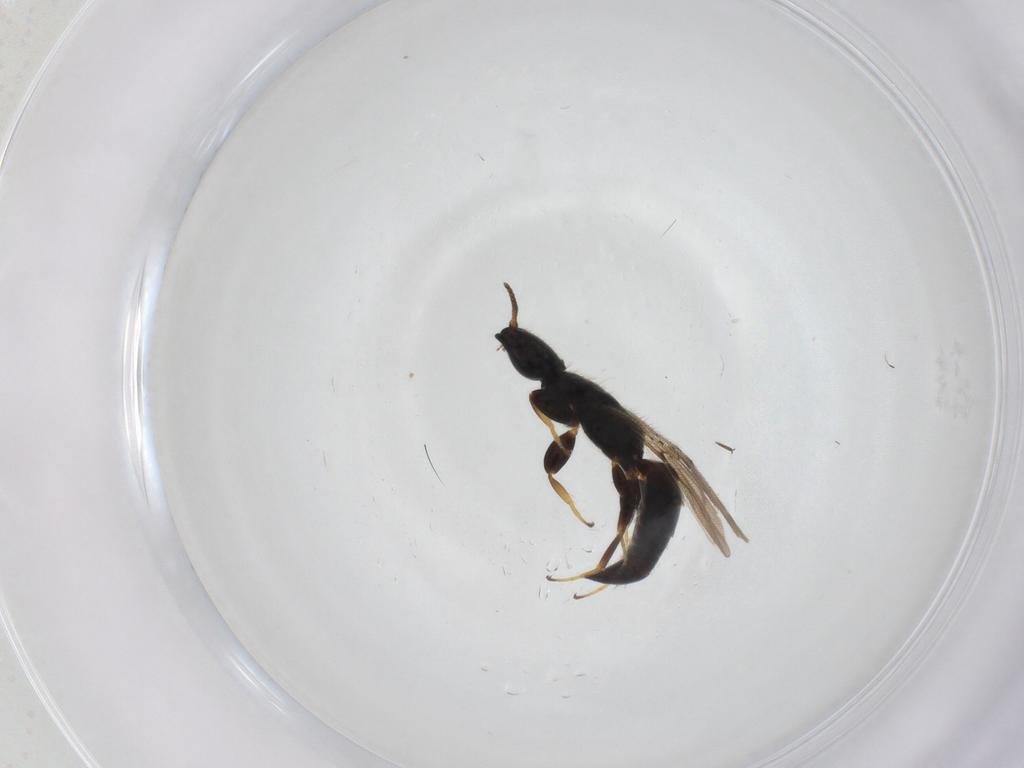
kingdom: Animalia
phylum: Arthropoda
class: Insecta
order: Hymenoptera
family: Bethylidae
